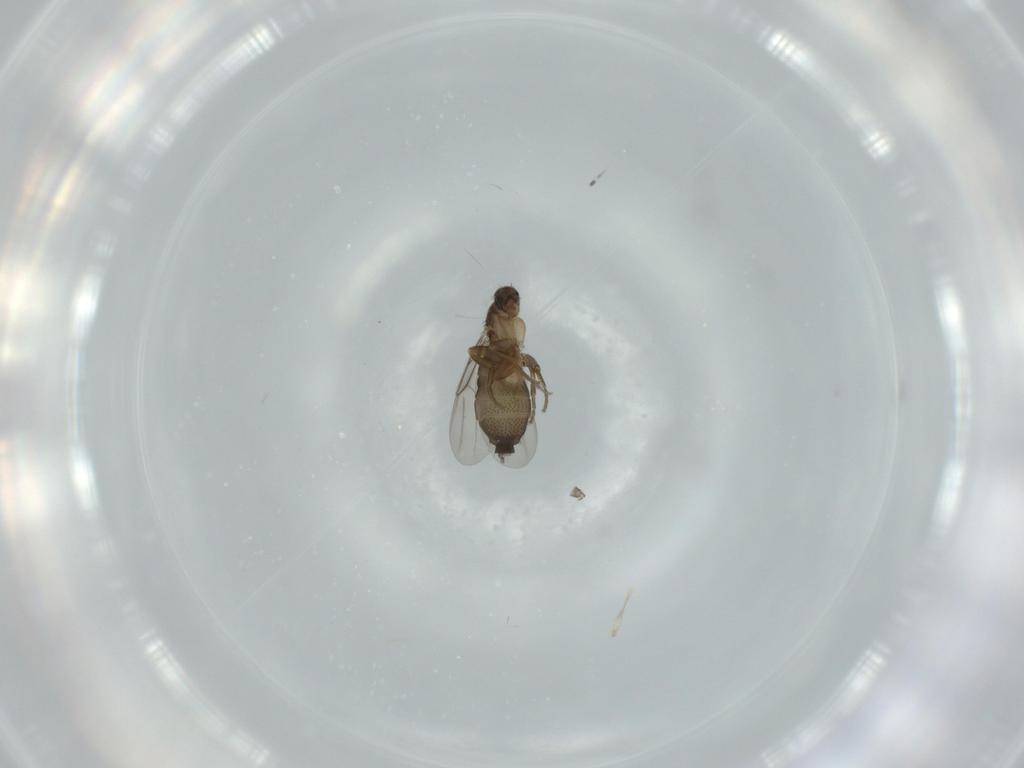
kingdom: Animalia
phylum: Arthropoda
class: Insecta
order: Diptera
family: Phoridae
